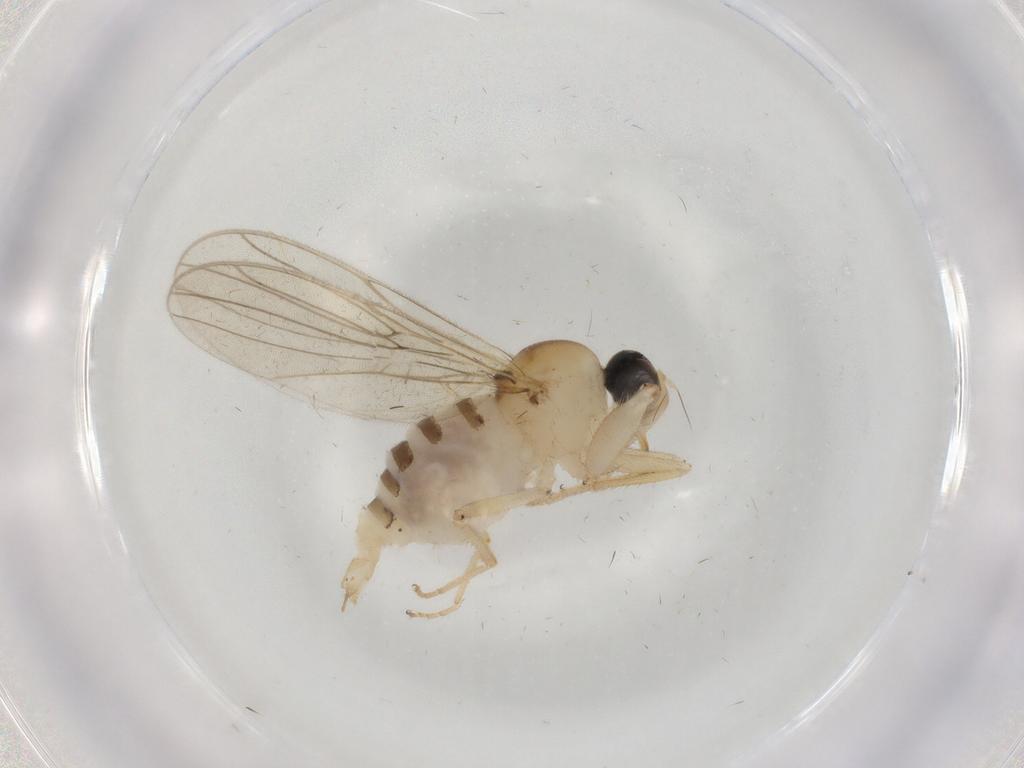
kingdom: Animalia
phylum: Arthropoda
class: Insecta
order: Diptera
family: Hybotidae
